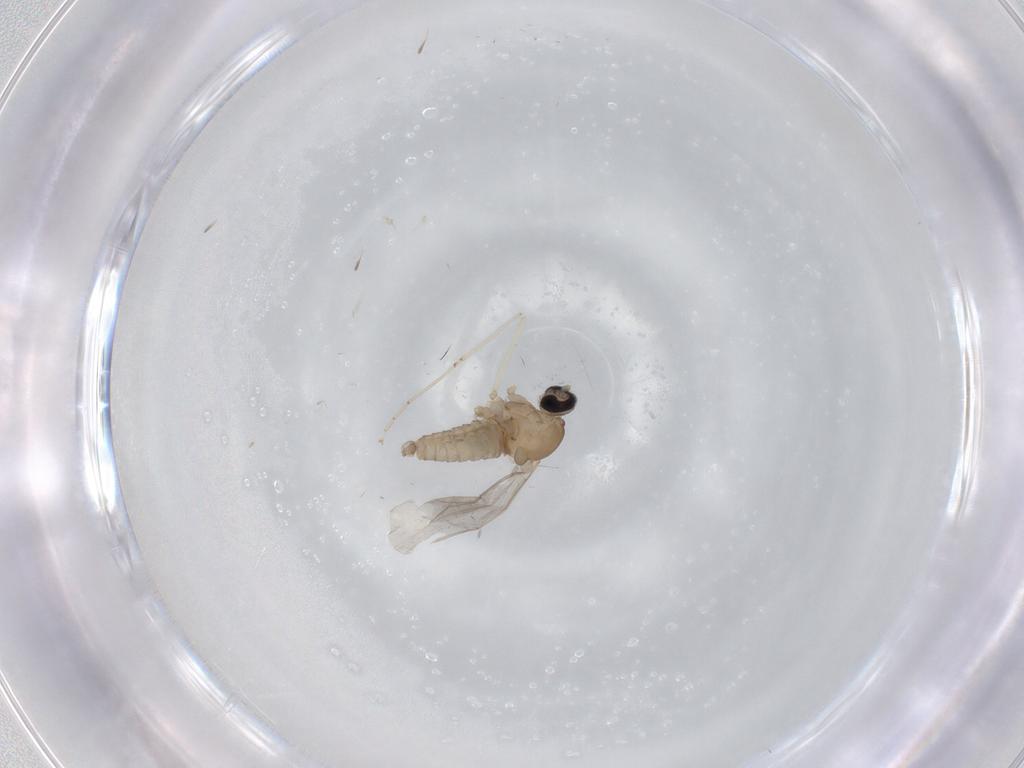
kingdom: Animalia
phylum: Arthropoda
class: Insecta
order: Diptera
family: Limoniidae
